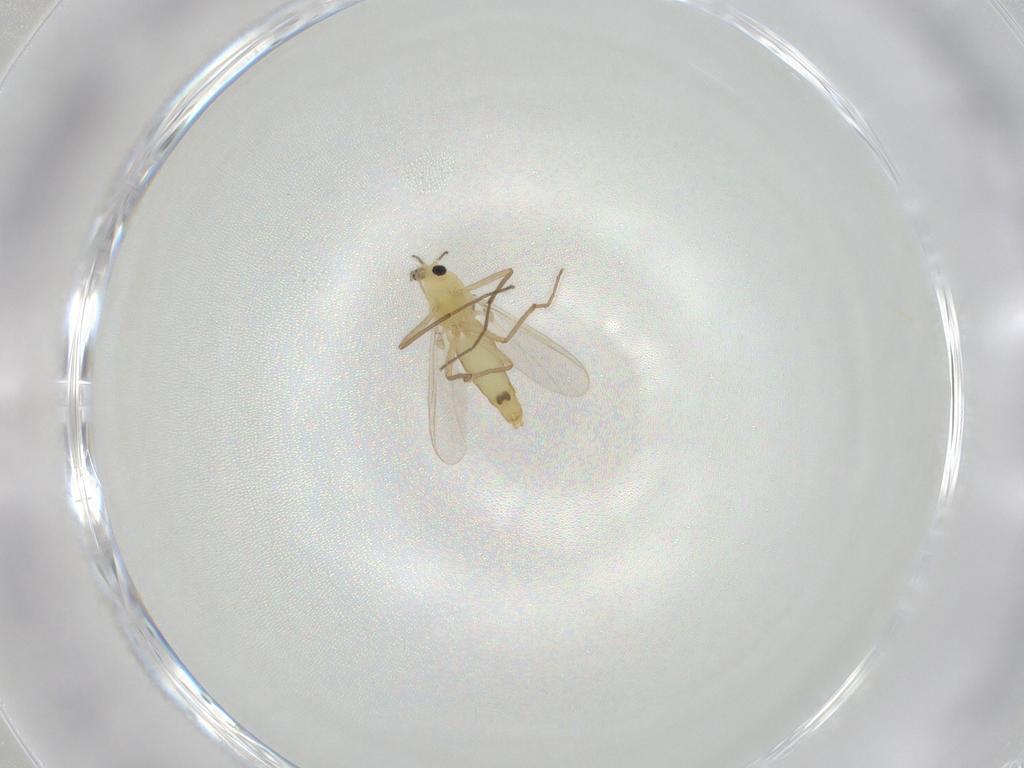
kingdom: Animalia
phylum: Arthropoda
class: Insecta
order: Diptera
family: Chironomidae
